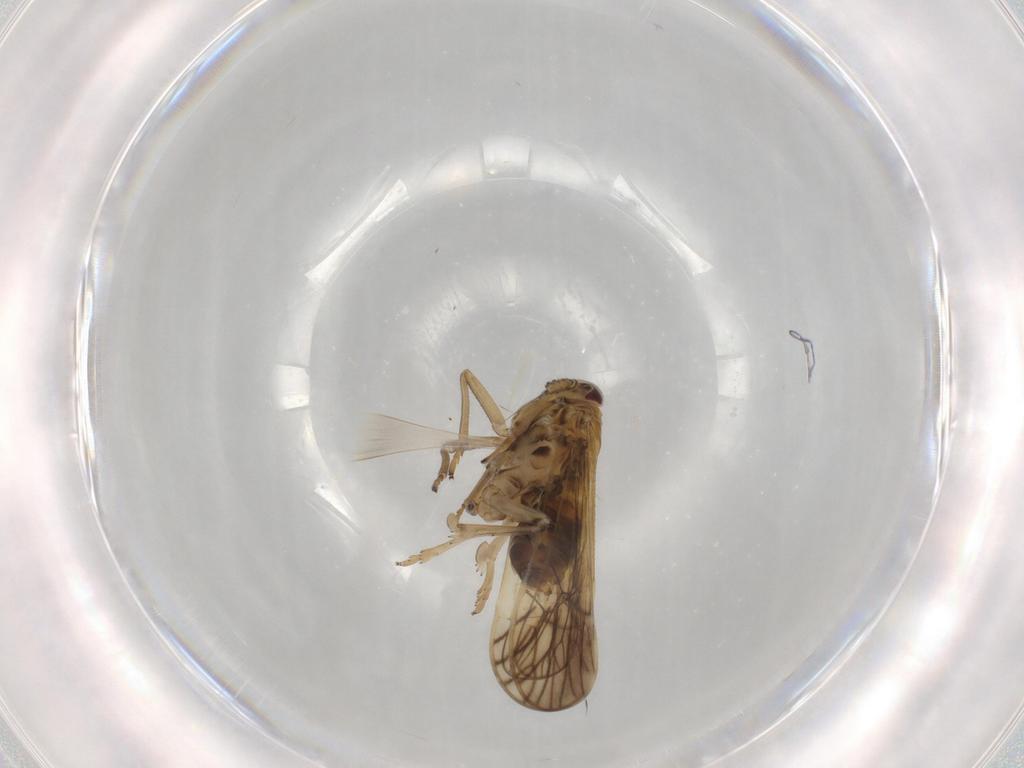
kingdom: Animalia
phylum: Arthropoda
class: Insecta
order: Hemiptera
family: Delphacidae
